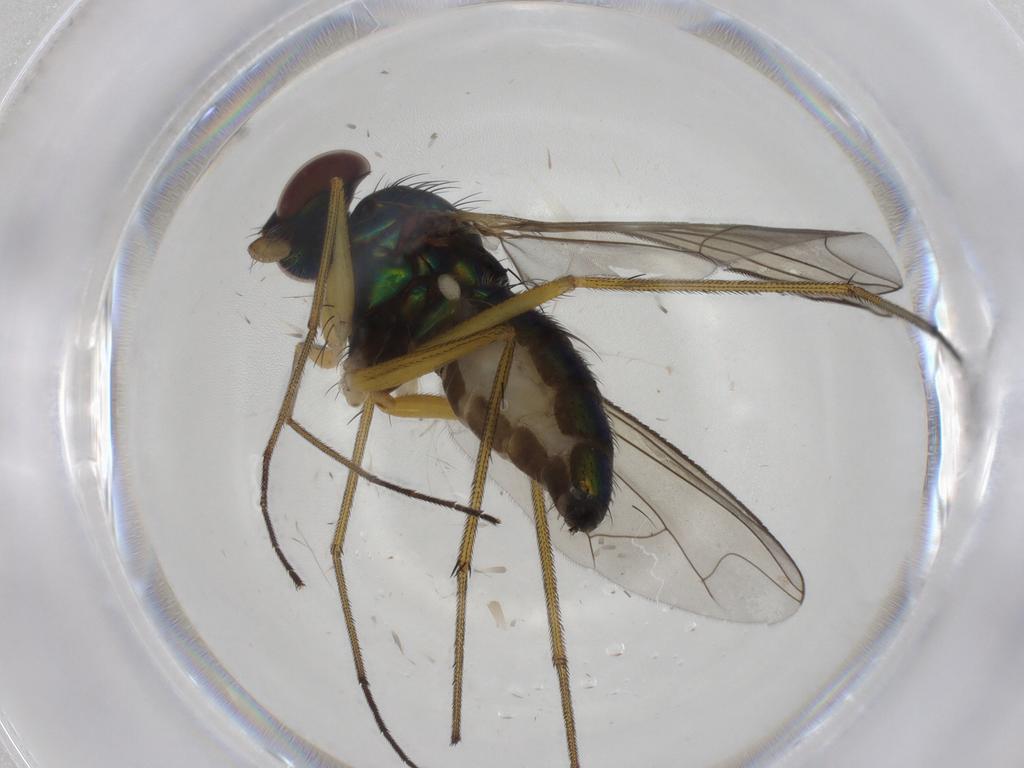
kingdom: Animalia
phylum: Arthropoda
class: Insecta
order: Diptera
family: Dolichopodidae
